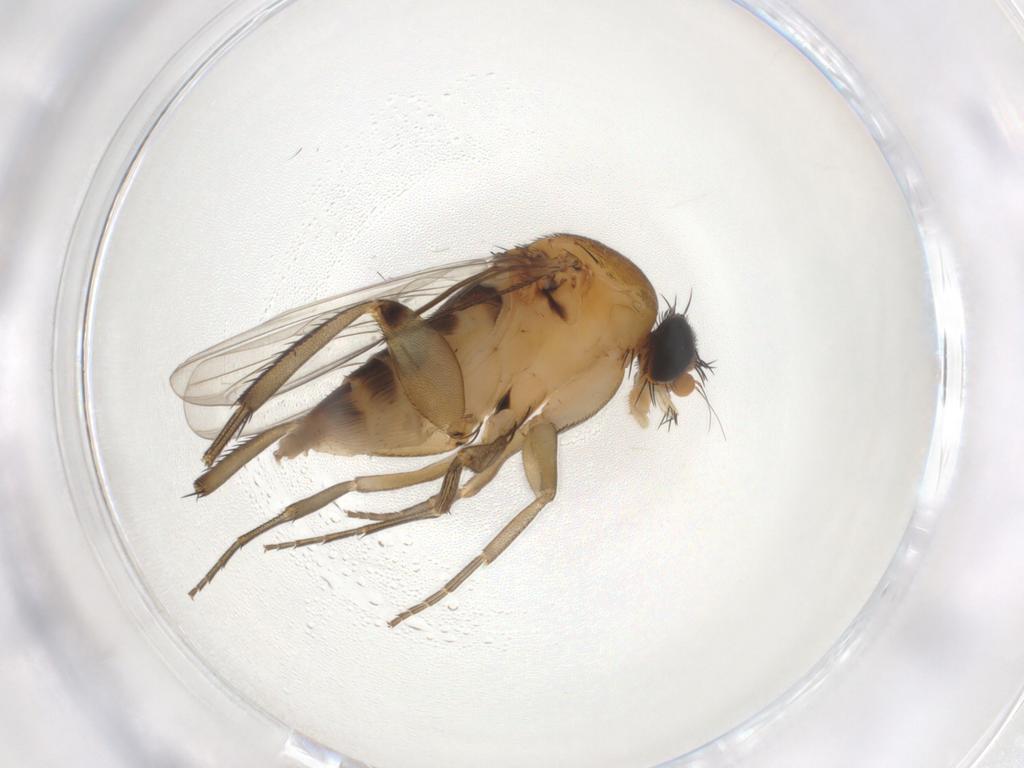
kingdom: Animalia
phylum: Arthropoda
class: Insecta
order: Diptera
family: Phoridae
